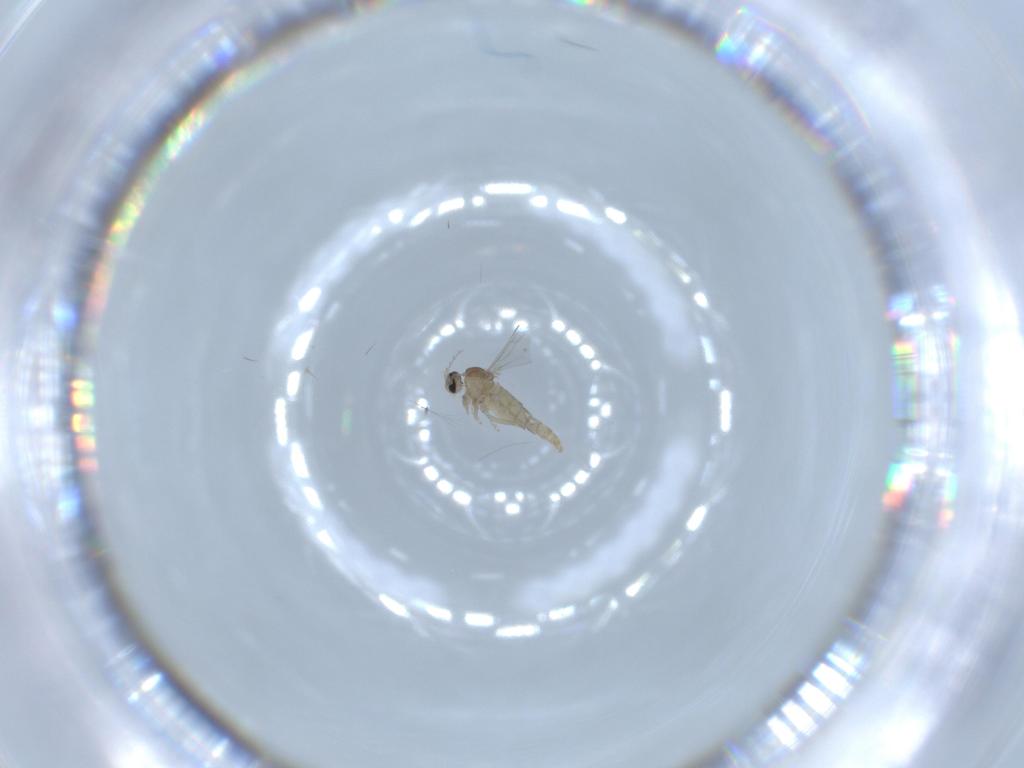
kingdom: Animalia
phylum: Arthropoda
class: Insecta
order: Diptera
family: Cecidomyiidae
